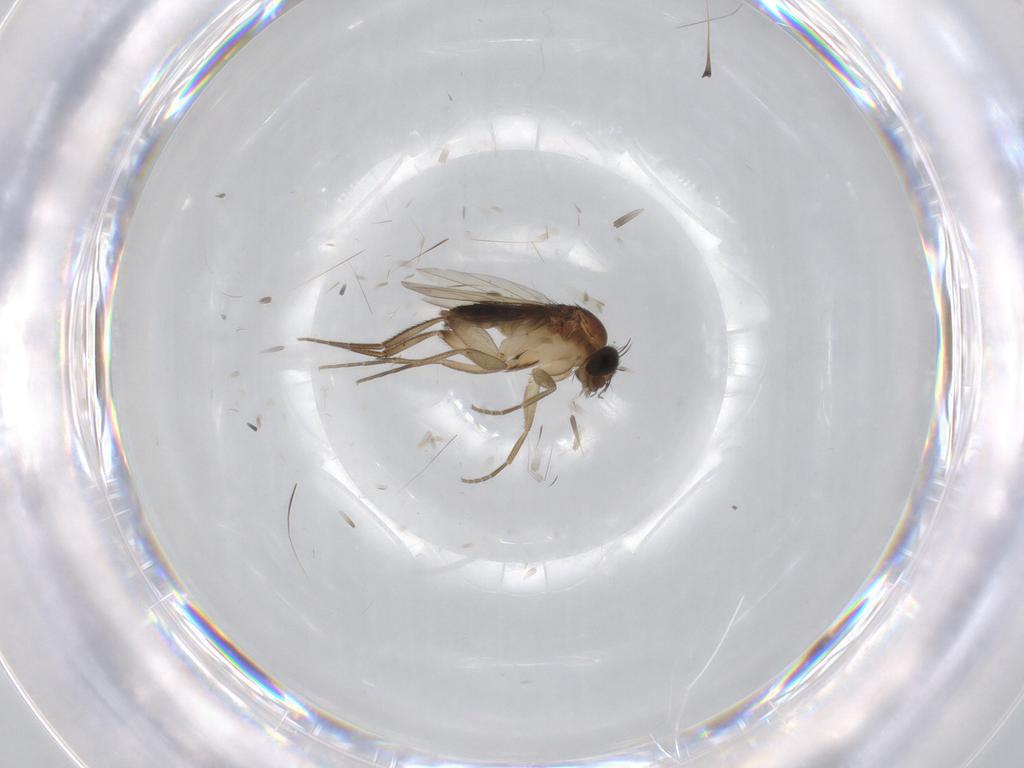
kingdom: Animalia
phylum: Arthropoda
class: Insecta
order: Diptera
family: Phoridae
